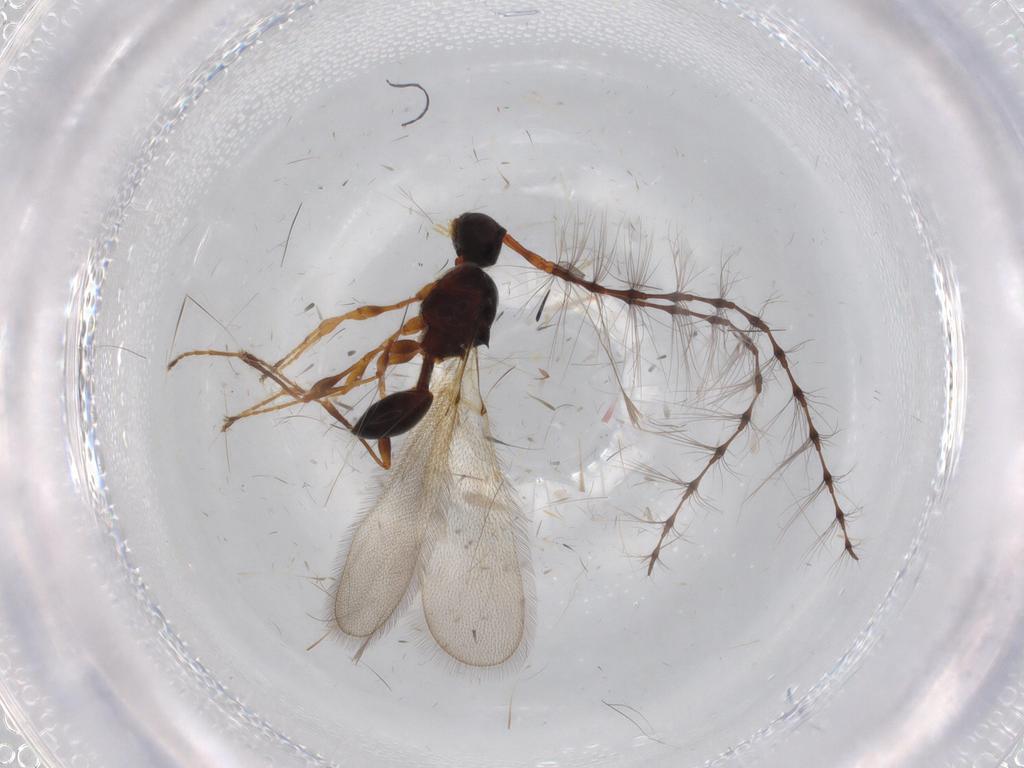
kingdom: Animalia
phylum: Arthropoda
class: Insecta
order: Hymenoptera
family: Diapriidae
